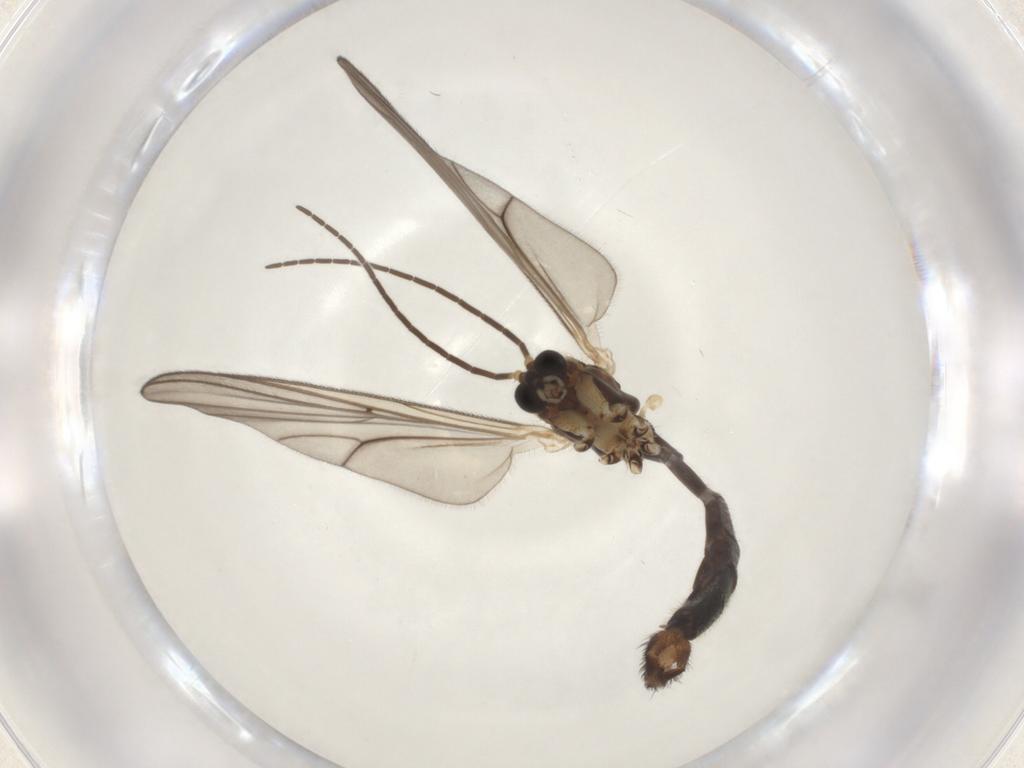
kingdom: Animalia
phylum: Arthropoda
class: Insecta
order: Diptera
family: Mycetophilidae
